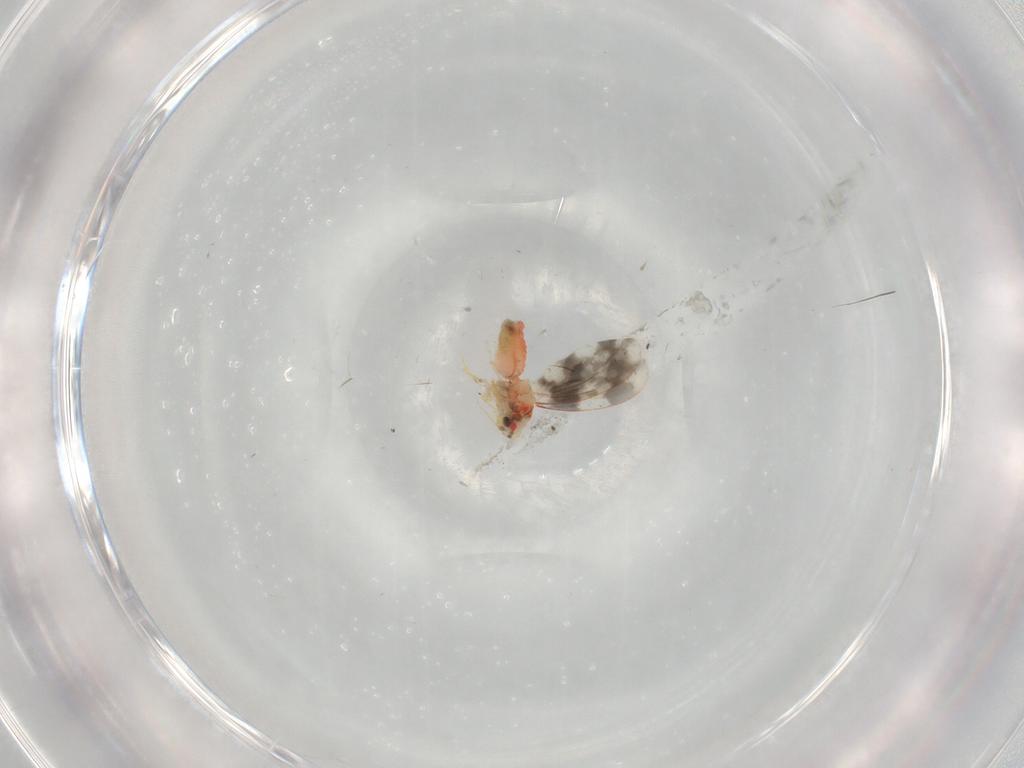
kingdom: Animalia
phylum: Arthropoda
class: Insecta
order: Hemiptera
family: Aleyrodidae
